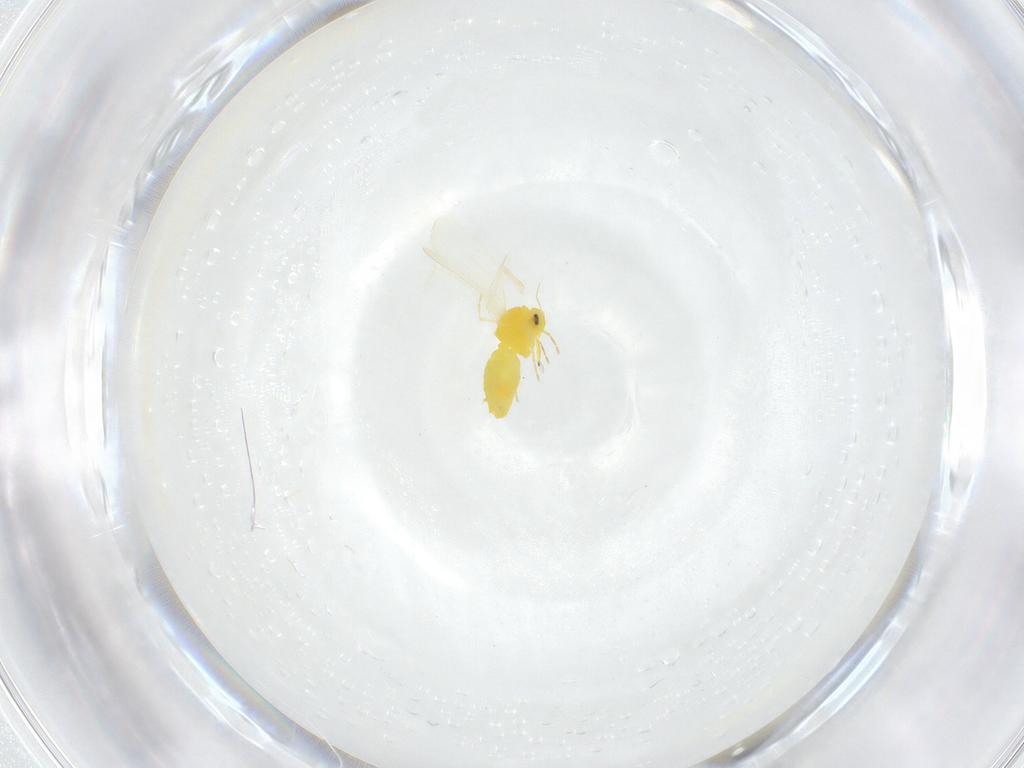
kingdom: Animalia
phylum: Arthropoda
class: Insecta
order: Hemiptera
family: Aleyrodidae
